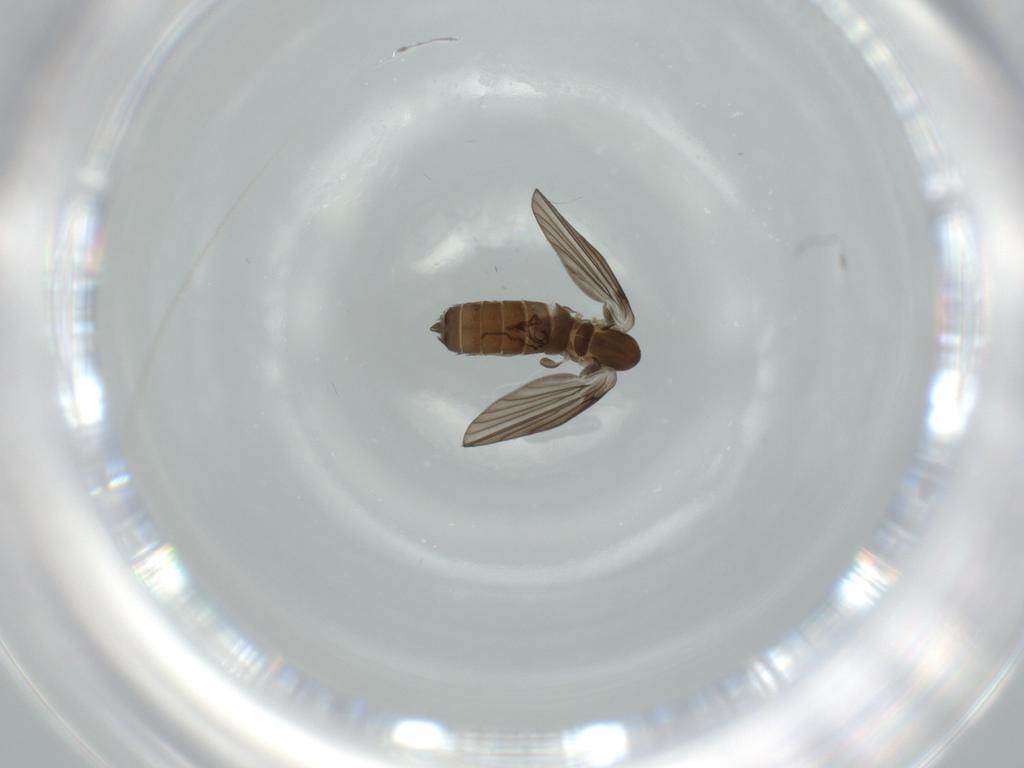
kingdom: Animalia
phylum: Arthropoda
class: Insecta
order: Diptera
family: Psychodidae
